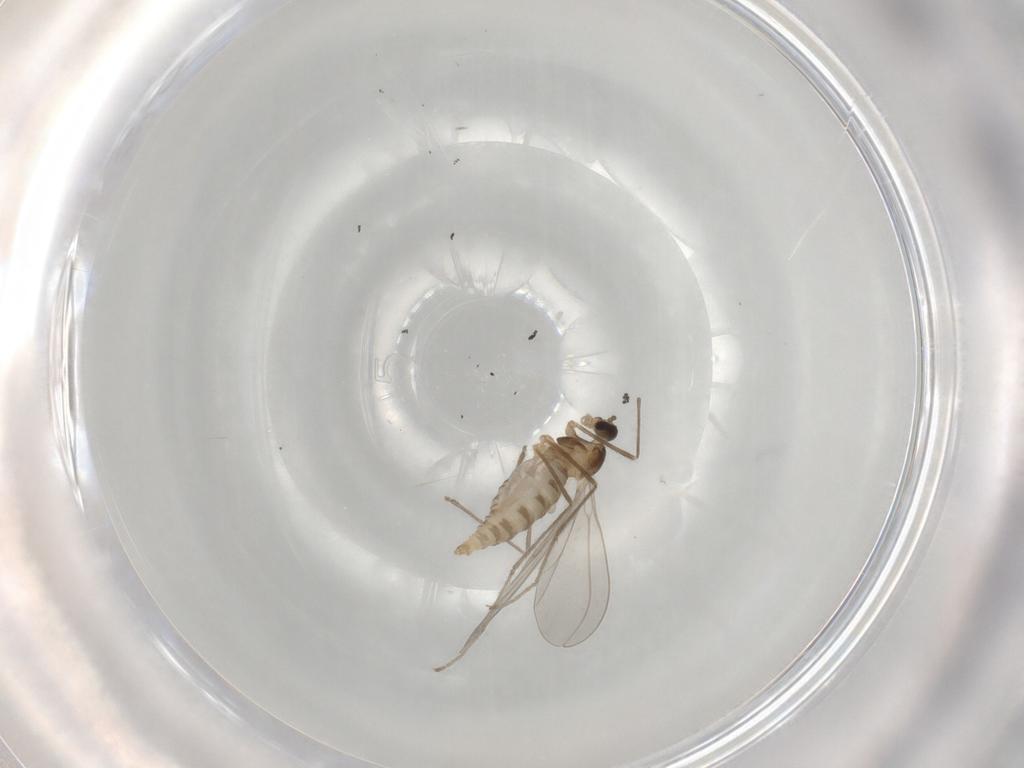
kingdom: Animalia
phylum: Arthropoda
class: Insecta
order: Diptera
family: Cecidomyiidae
